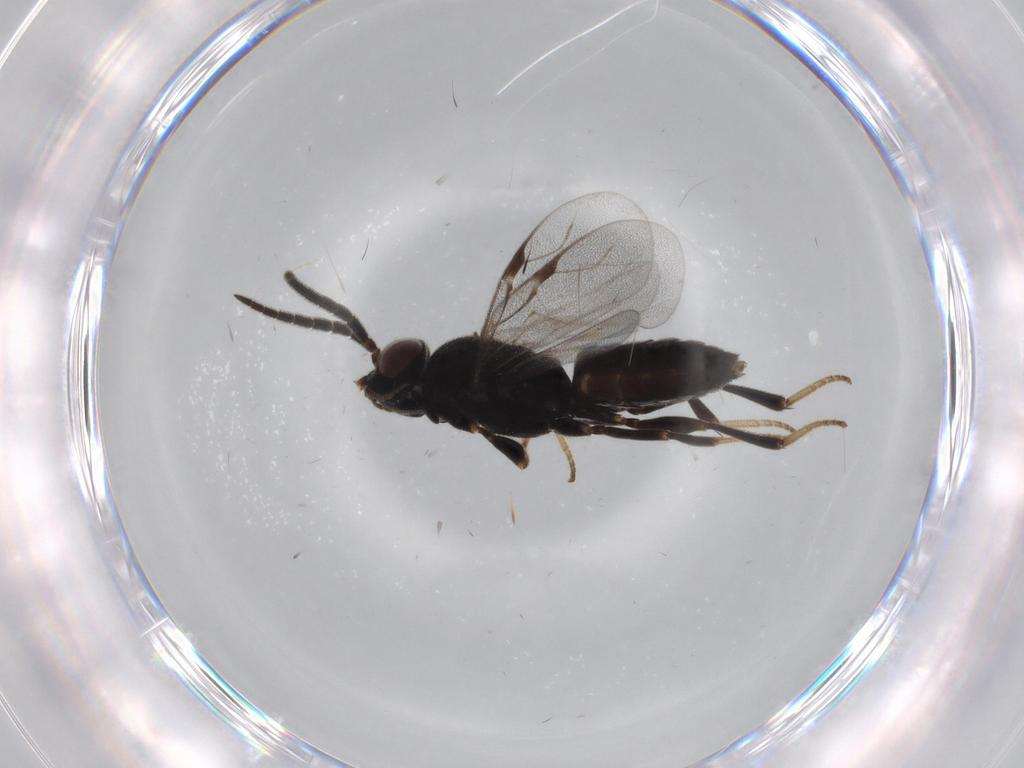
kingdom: Animalia
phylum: Arthropoda
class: Insecta
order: Hymenoptera
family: Dryinidae
